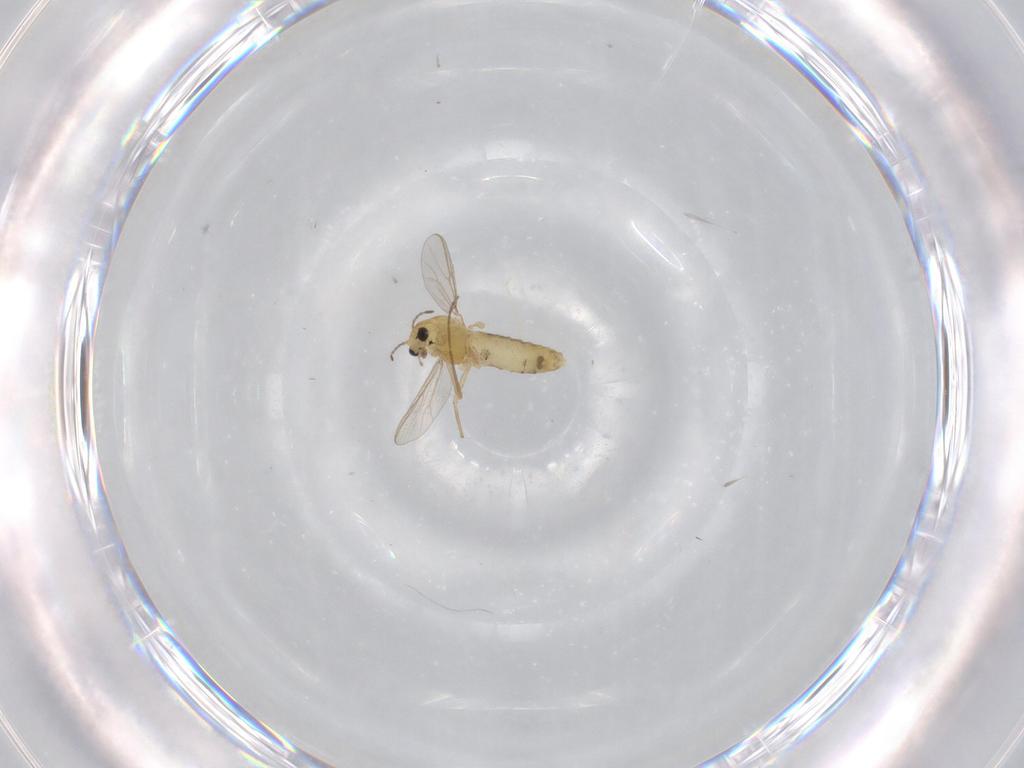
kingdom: Animalia
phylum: Arthropoda
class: Insecta
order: Diptera
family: Chironomidae
